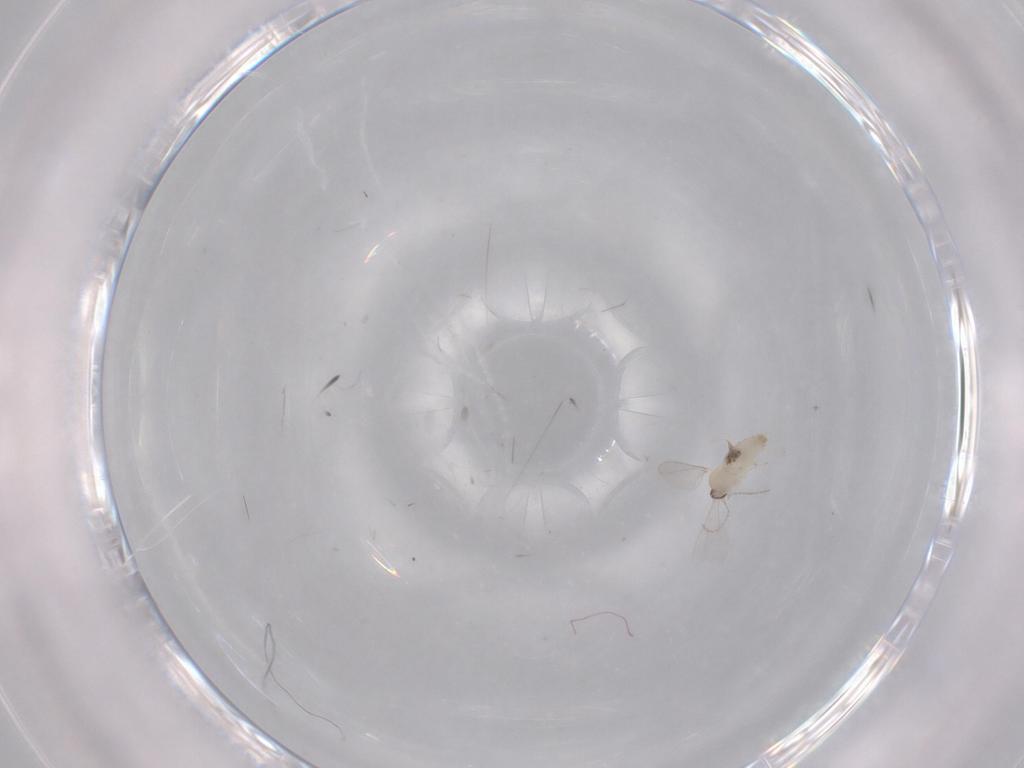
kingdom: Animalia
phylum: Arthropoda
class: Insecta
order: Diptera
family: Cecidomyiidae
